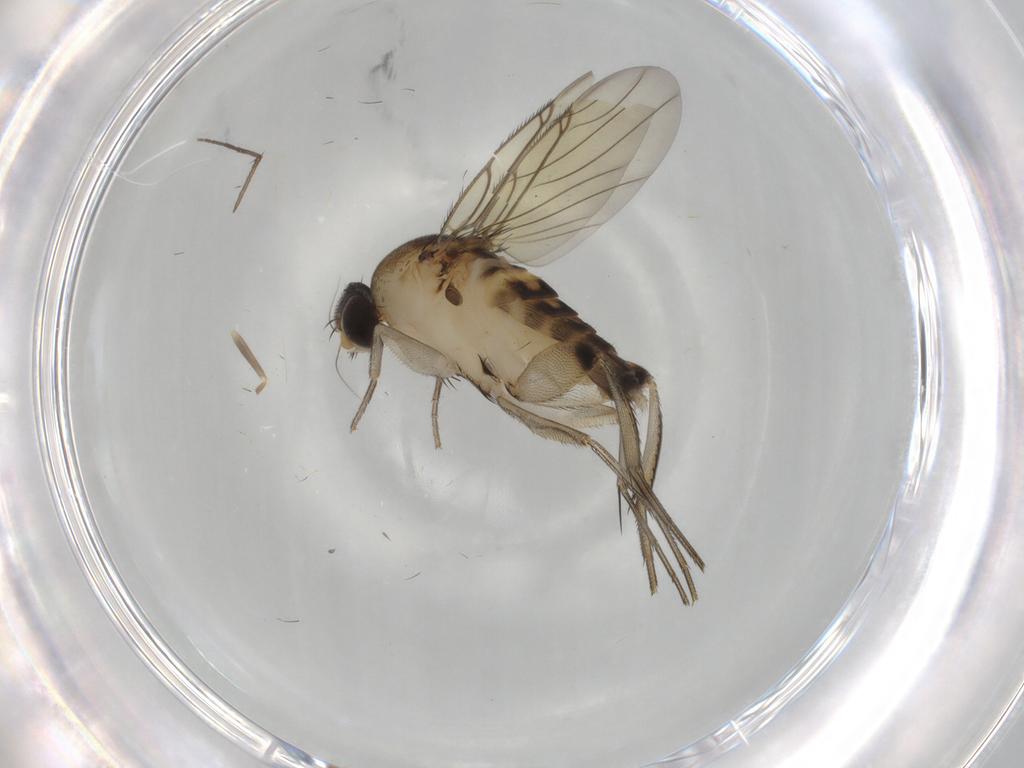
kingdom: Animalia
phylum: Arthropoda
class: Insecta
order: Diptera
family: Phoridae
